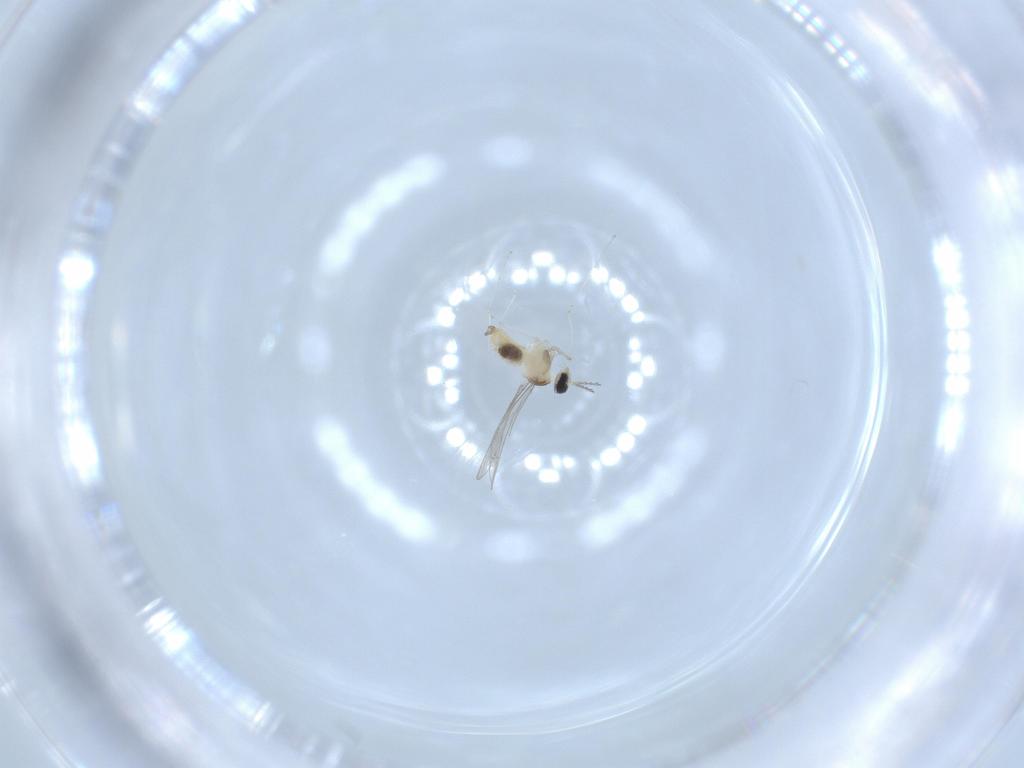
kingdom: Animalia
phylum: Arthropoda
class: Insecta
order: Diptera
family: Cecidomyiidae
